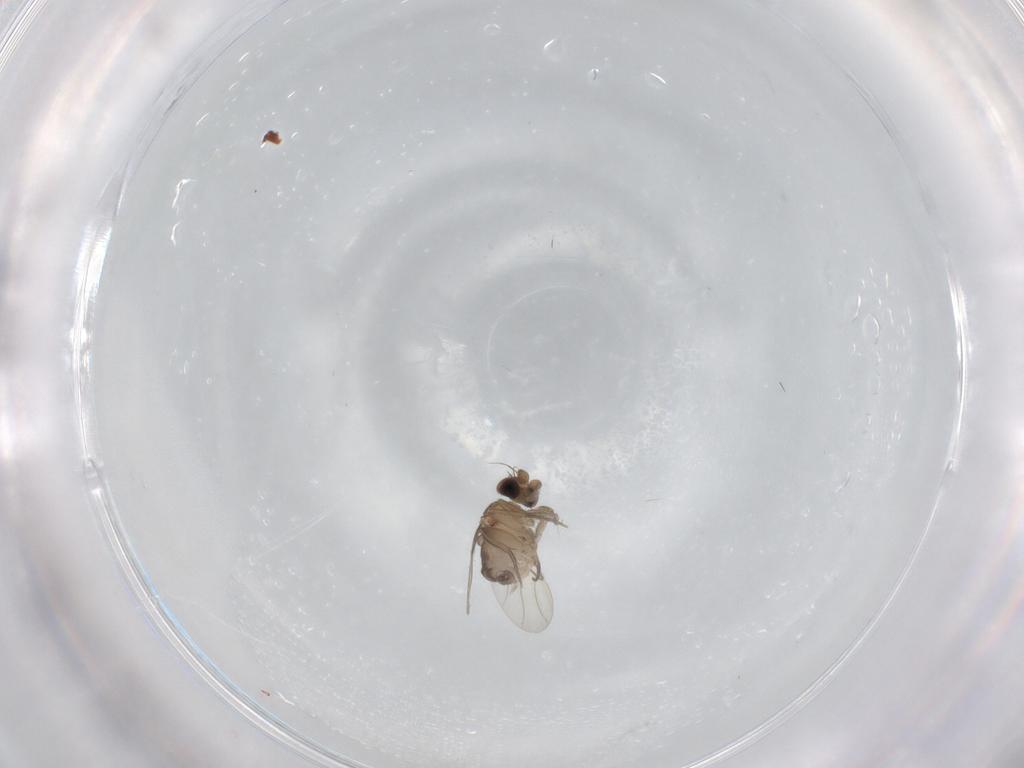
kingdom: Animalia
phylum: Arthropoda
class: Insecta
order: Diptera
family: Phoridae
